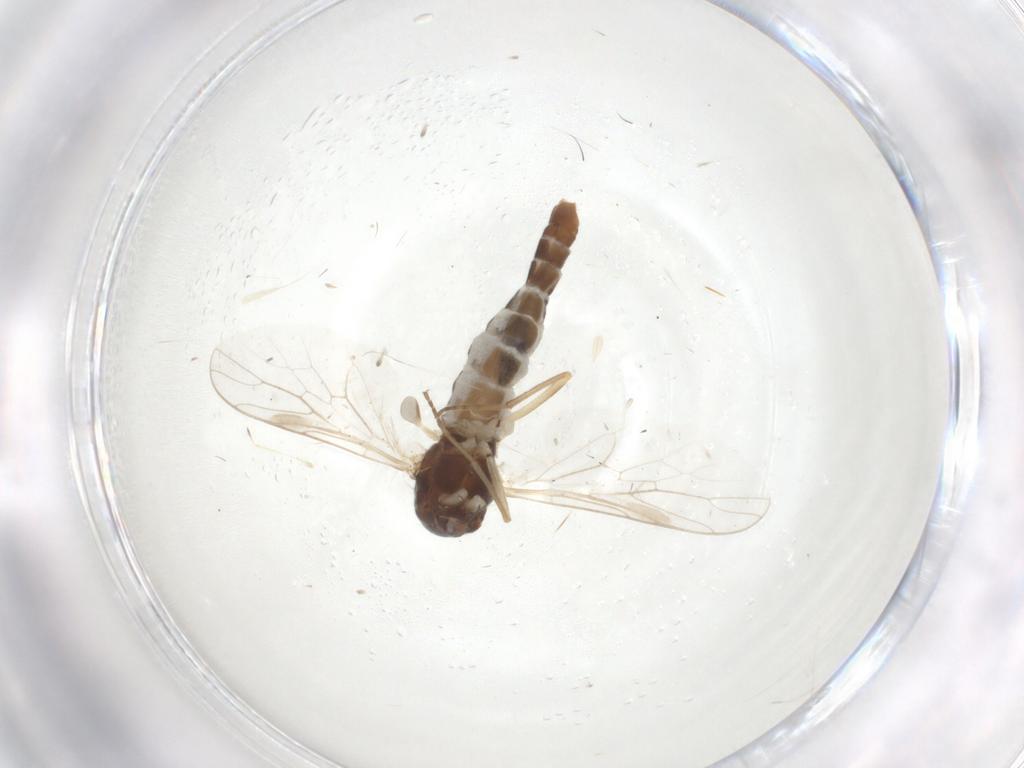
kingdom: Animalia
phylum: Arthropoda
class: Insecta
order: Diptera
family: Scenopinidae
